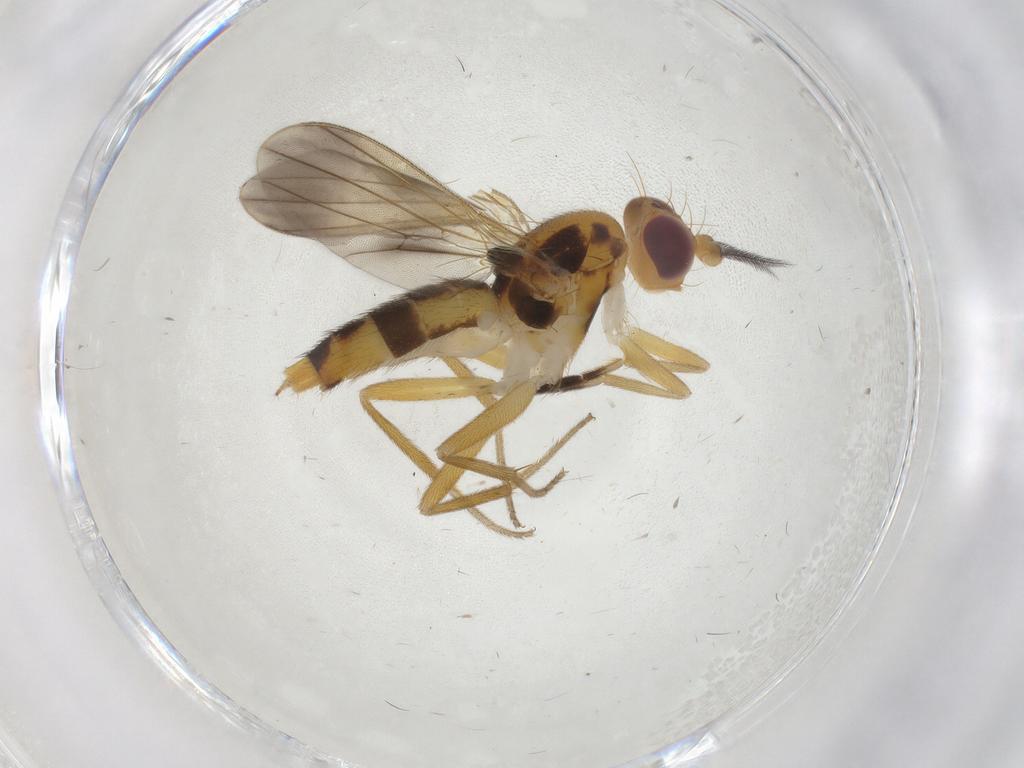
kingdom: Animalia
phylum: Arthropoda
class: Insecta
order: Diptera
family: Clusiidae
